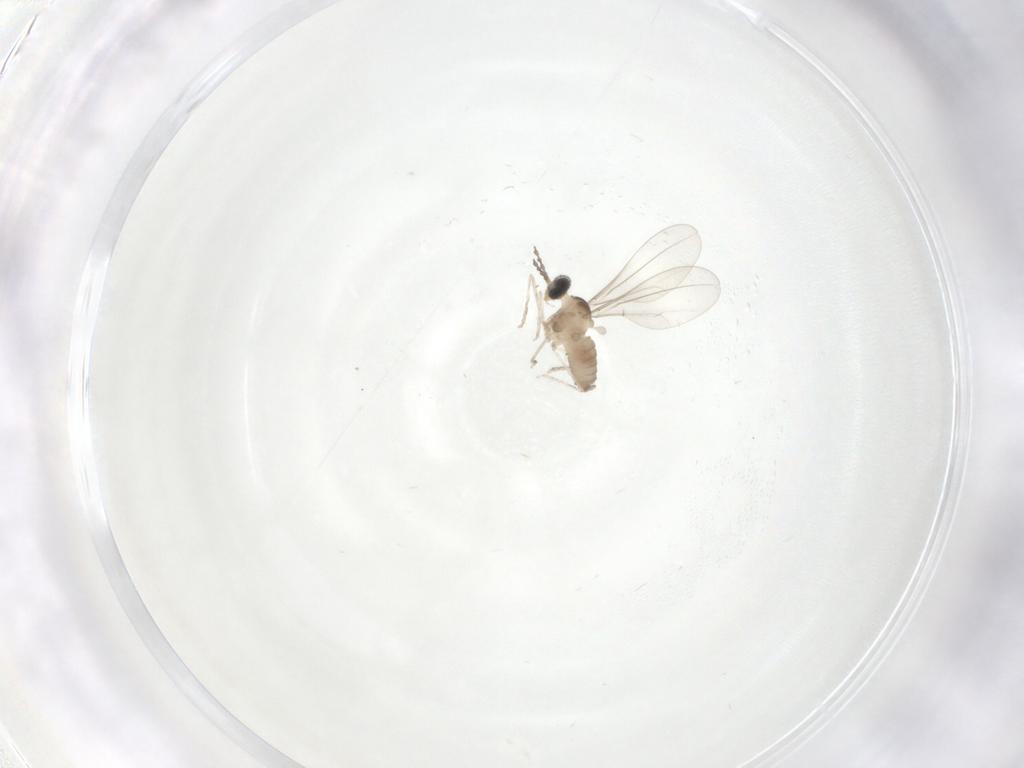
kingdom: Animalia
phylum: Arthropoda
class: Insecta
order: Diptera
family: Cecidomyiidae
